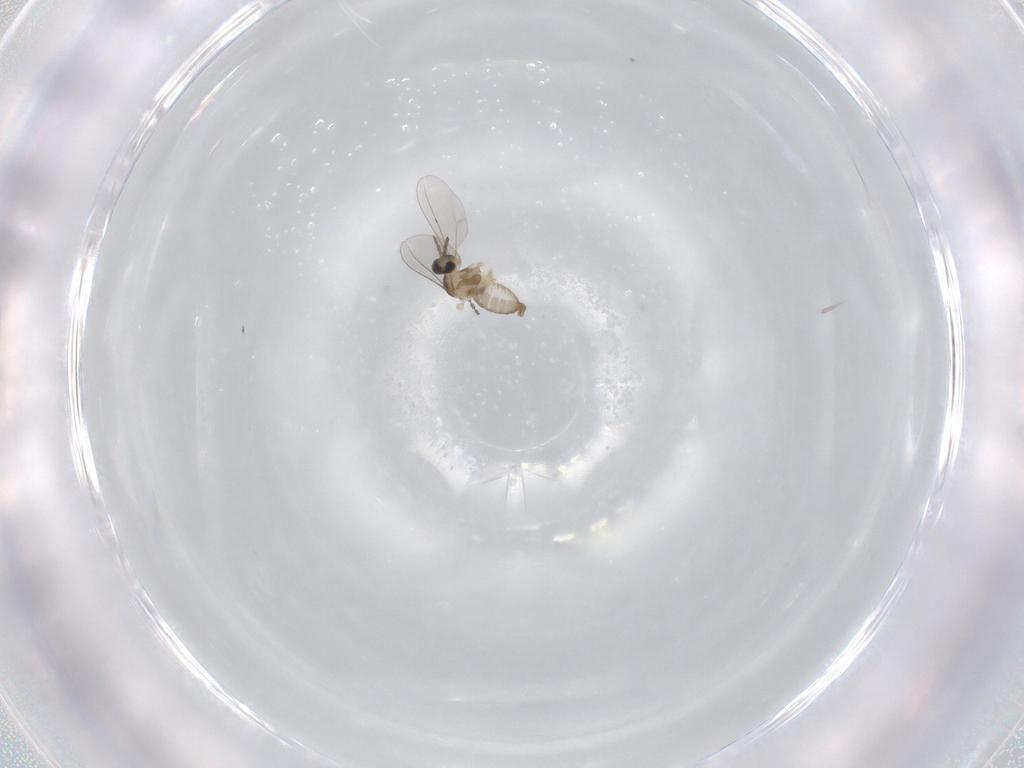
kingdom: Animalia
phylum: Arthropoda
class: Insecta
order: Diptera
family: Cecidomyiidae
